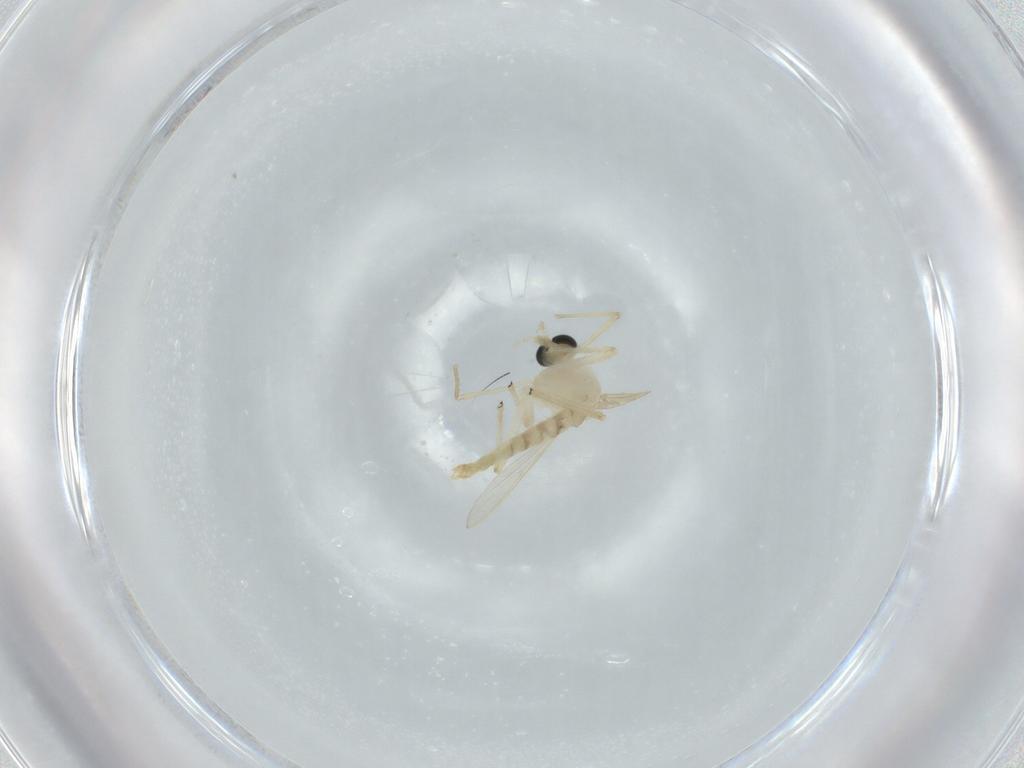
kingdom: Animalia
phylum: Arthropoda
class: Insecta
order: Diptera
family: Chironomidae
